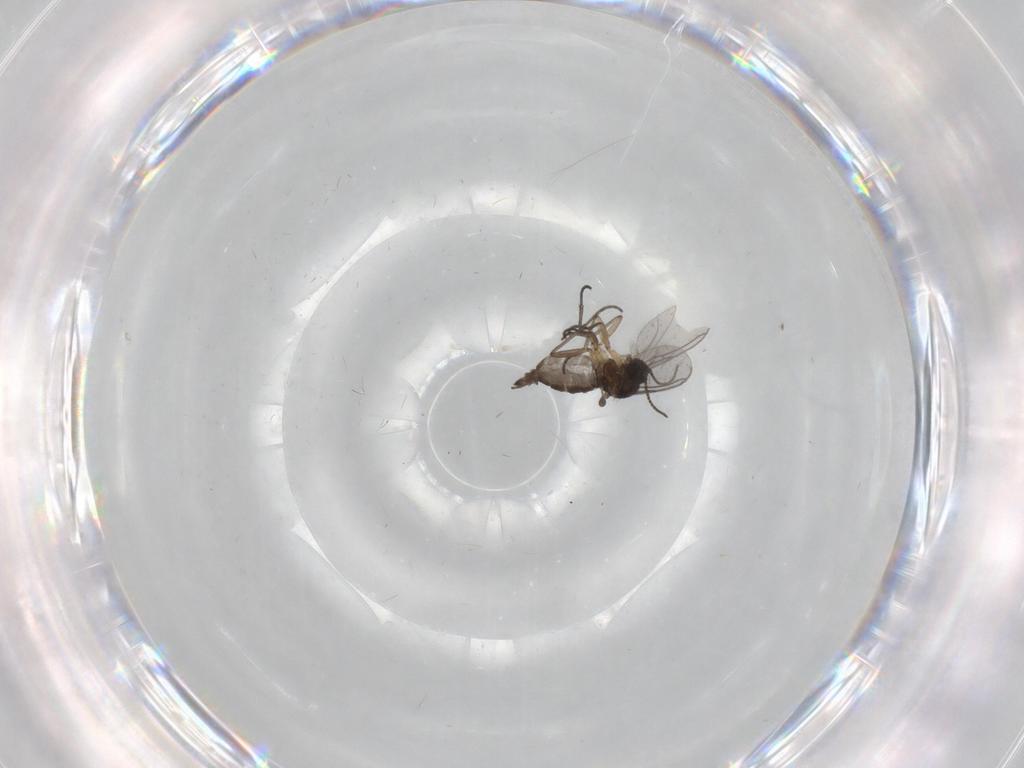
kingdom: Animalia
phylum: Arthropoda
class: Insecta
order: Diptera
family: Sciaridae
